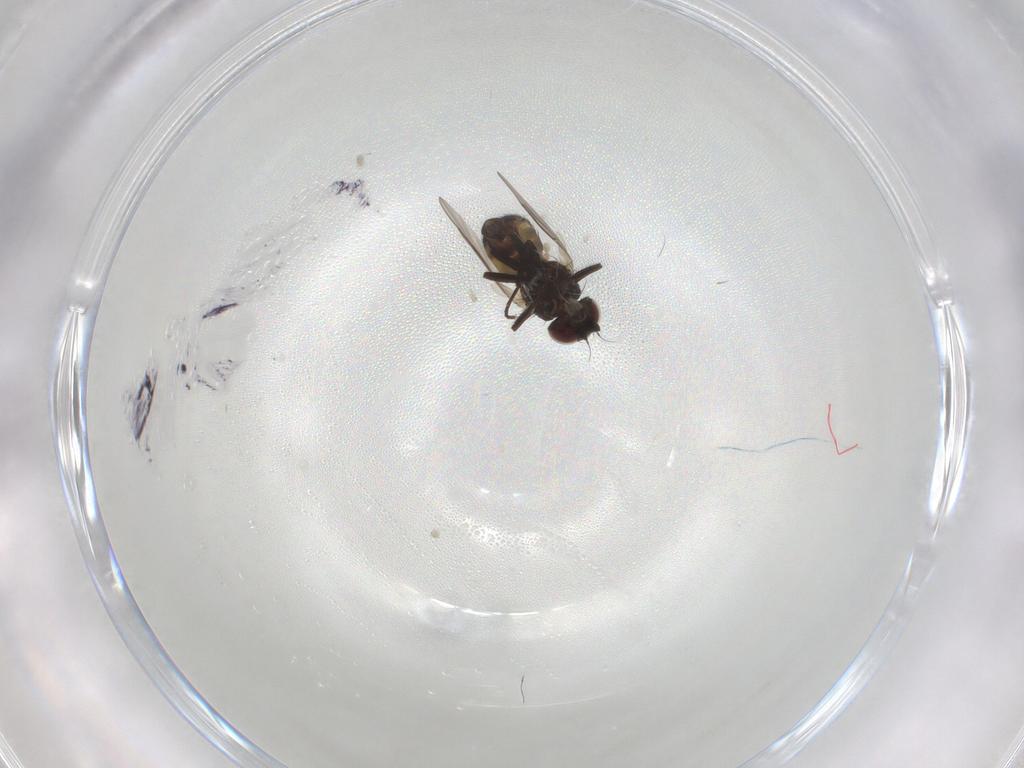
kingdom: Animalia
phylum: Arthropoda
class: Insecta
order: Diptera
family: Agromyzidae
